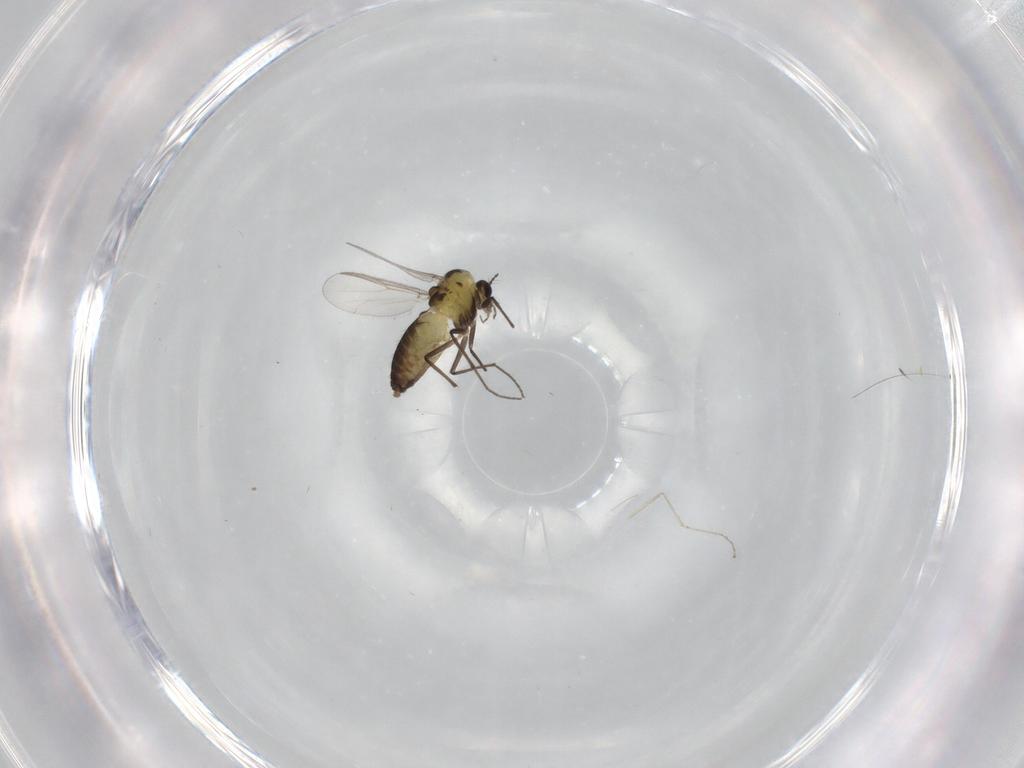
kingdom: Animalia
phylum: Arthropoda
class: Insecta
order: Diptera
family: Chironomidae
